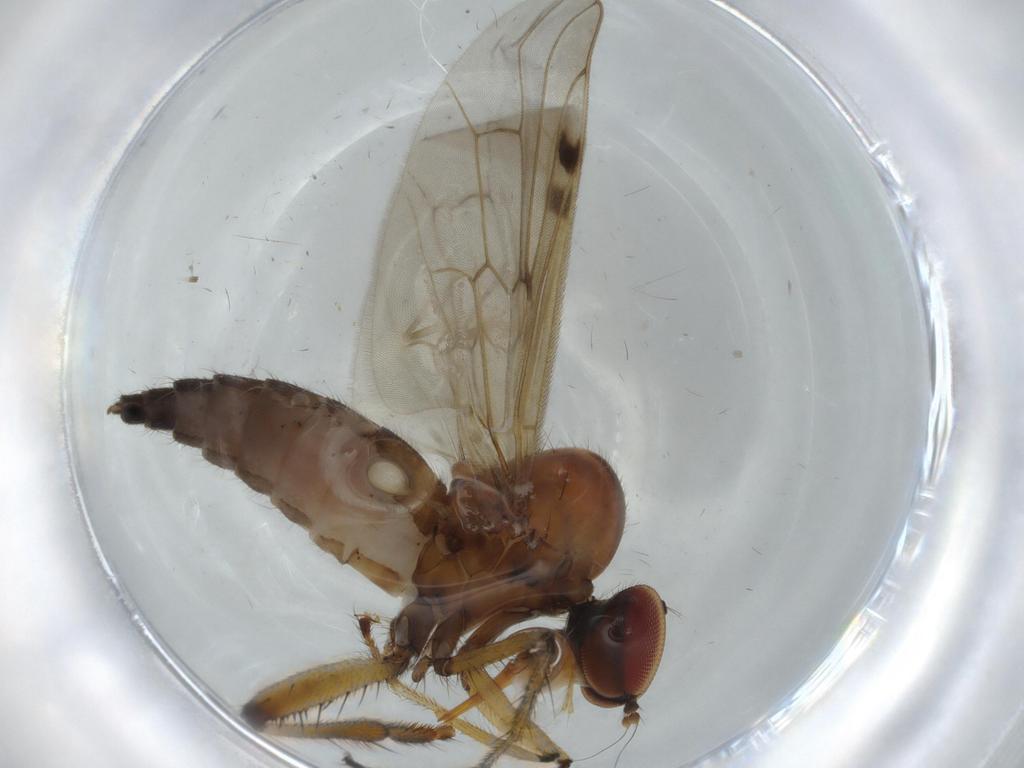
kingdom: Animalia
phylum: Arthropoda
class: Insecta
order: Diptera
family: Hybotidae
